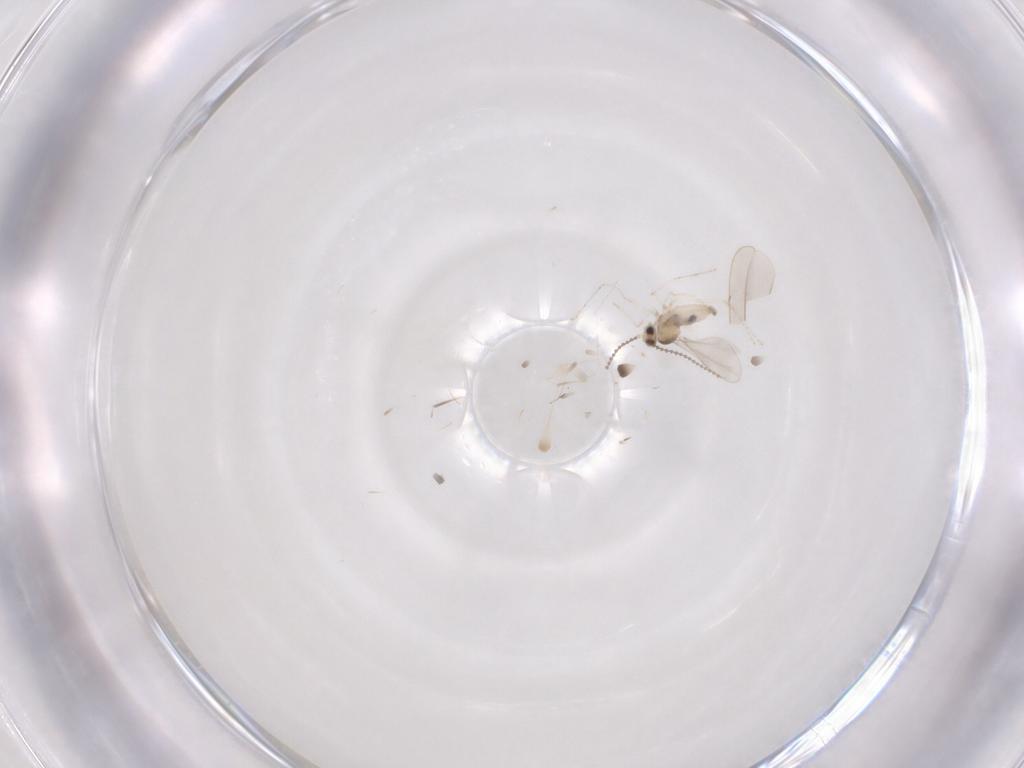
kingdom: Animalia
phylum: Arthropoda
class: Insecta
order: Diptera
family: Cecidomyiidae
